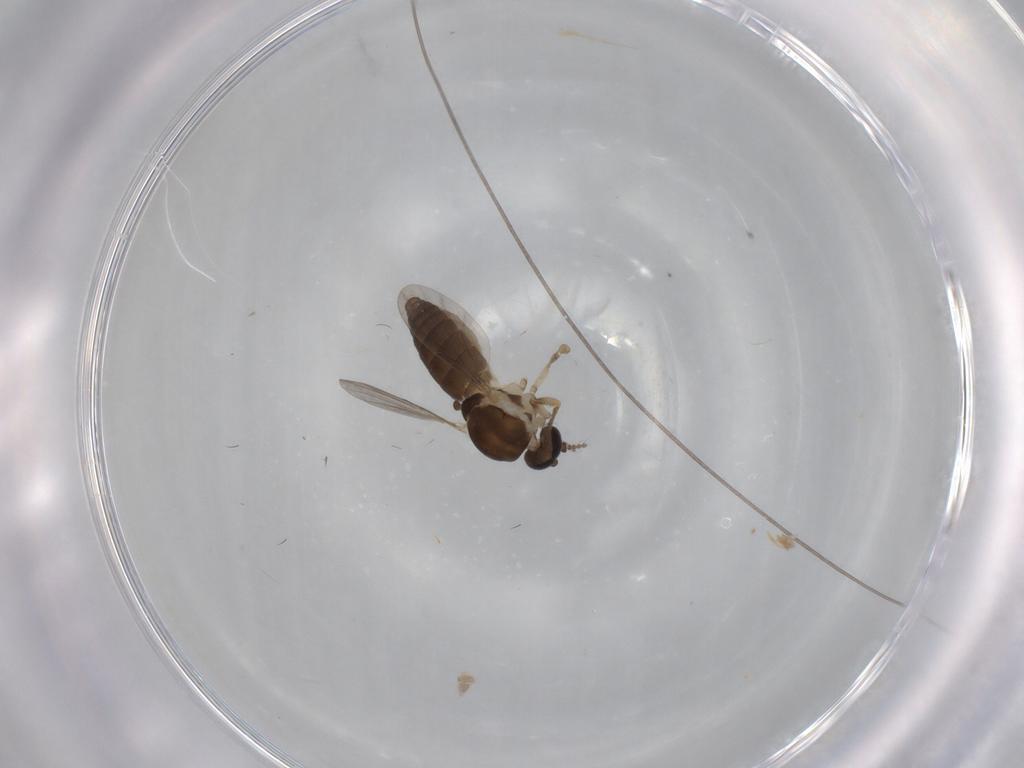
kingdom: Animalia
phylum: Arthropoda
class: Insecta
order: Diptera
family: Ceratopogonidae
